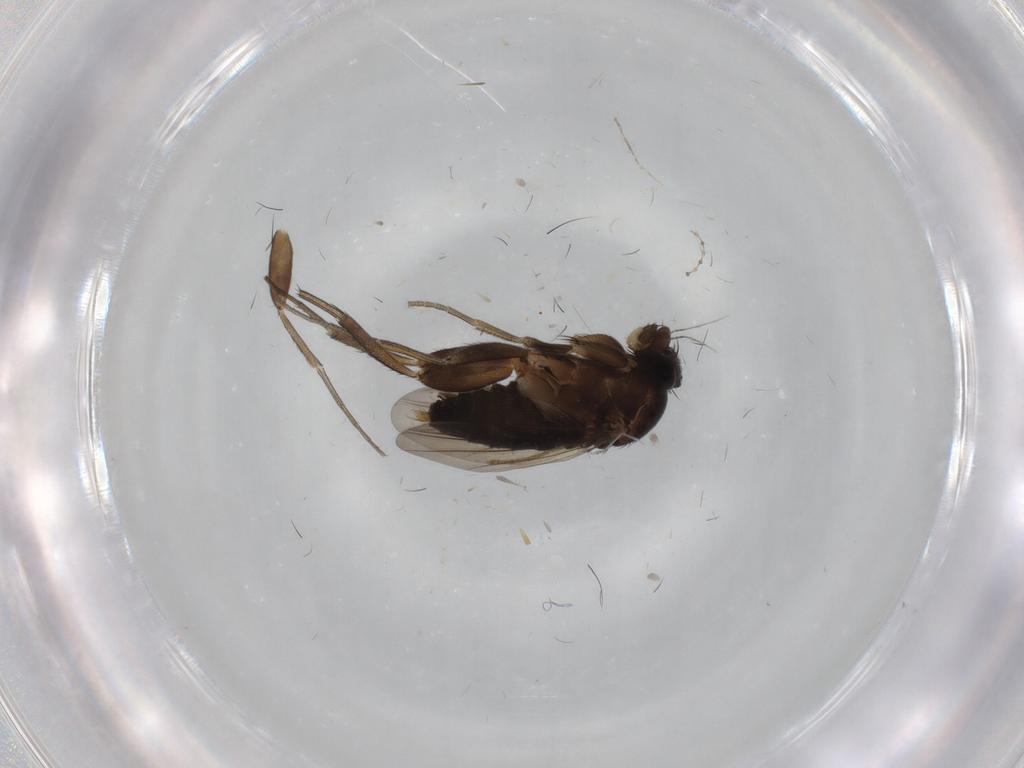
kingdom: Animalia
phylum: Arthropoda
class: Insecta
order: Diptera
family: Phoridae
